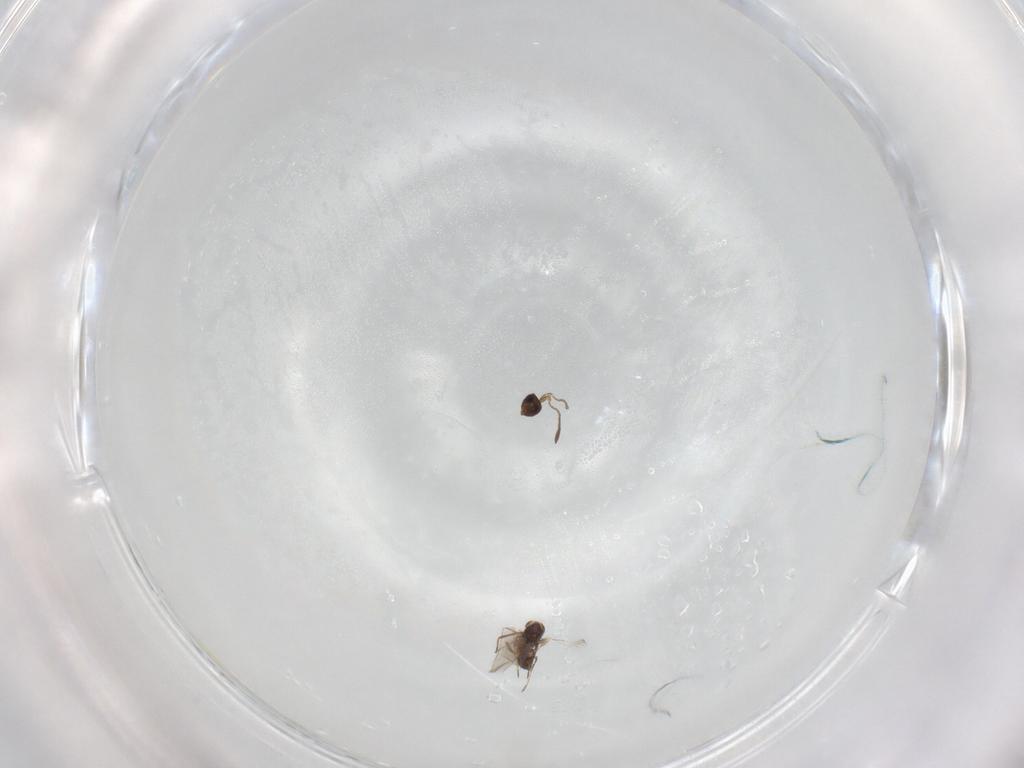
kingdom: Animalia
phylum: Arthropoda
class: Insecta
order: Hymenoptera
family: Mymaridae
